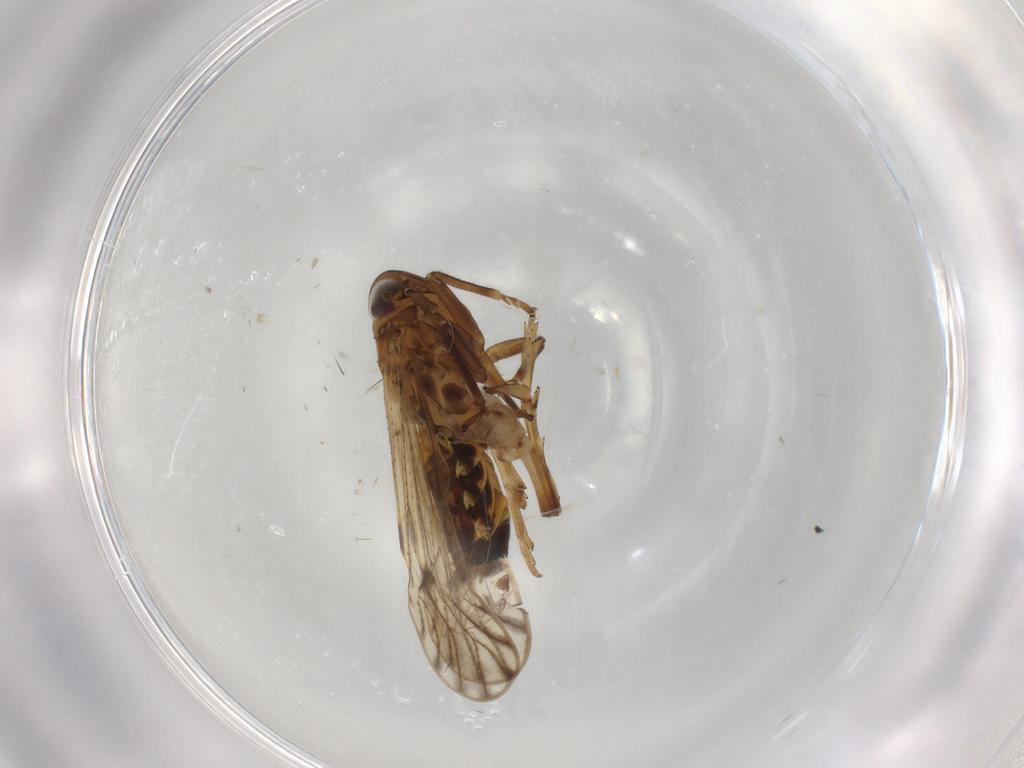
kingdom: Animalia
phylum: Arthropoda
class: Insecta
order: Hemiptera
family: Delphacidae
